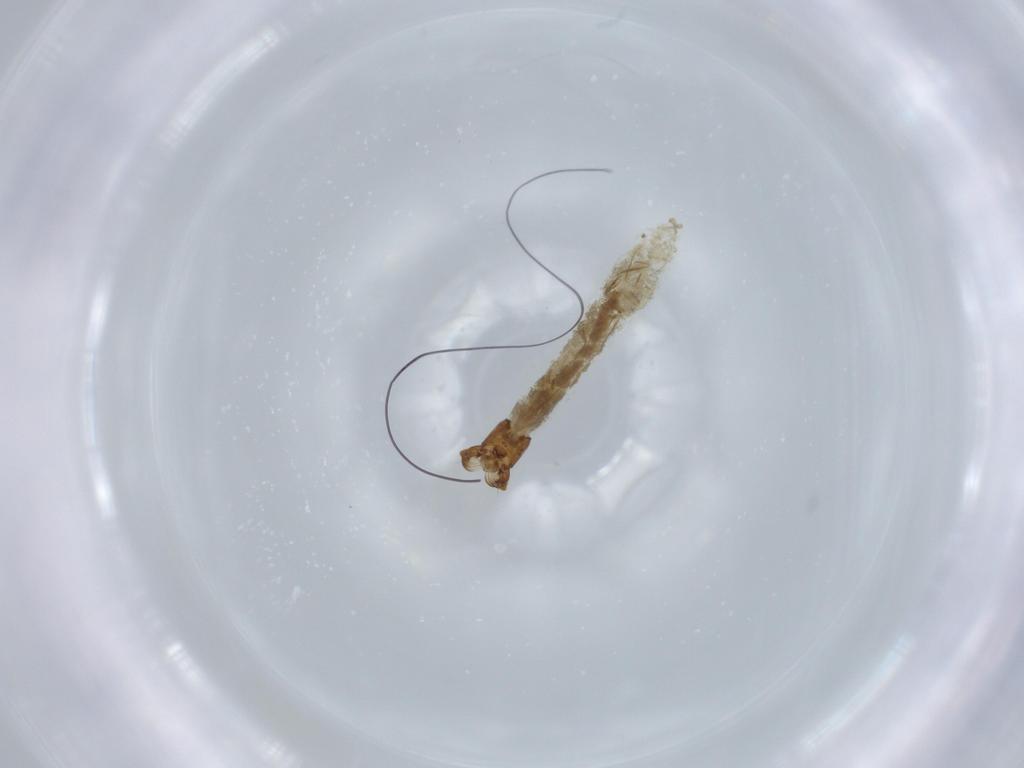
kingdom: Animalia
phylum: Arthropoda
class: Insecta
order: Diptera
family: Simuliidae
